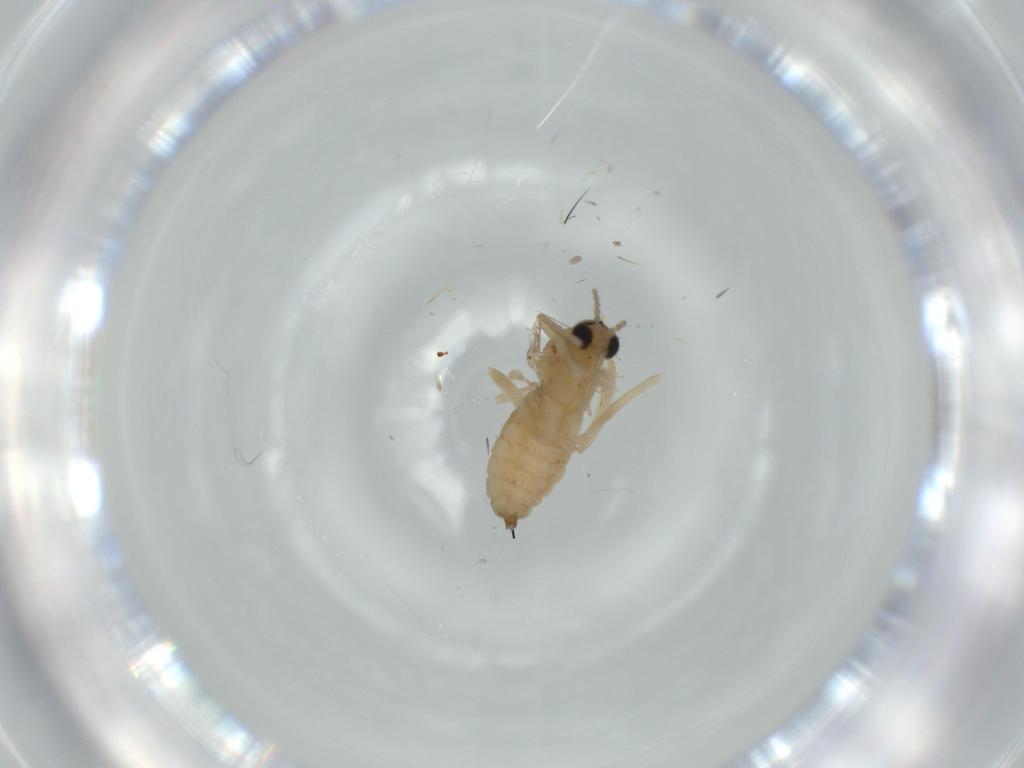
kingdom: Animalia
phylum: Arthropoda
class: Insecta
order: Diptera
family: Cecidomyiidae
